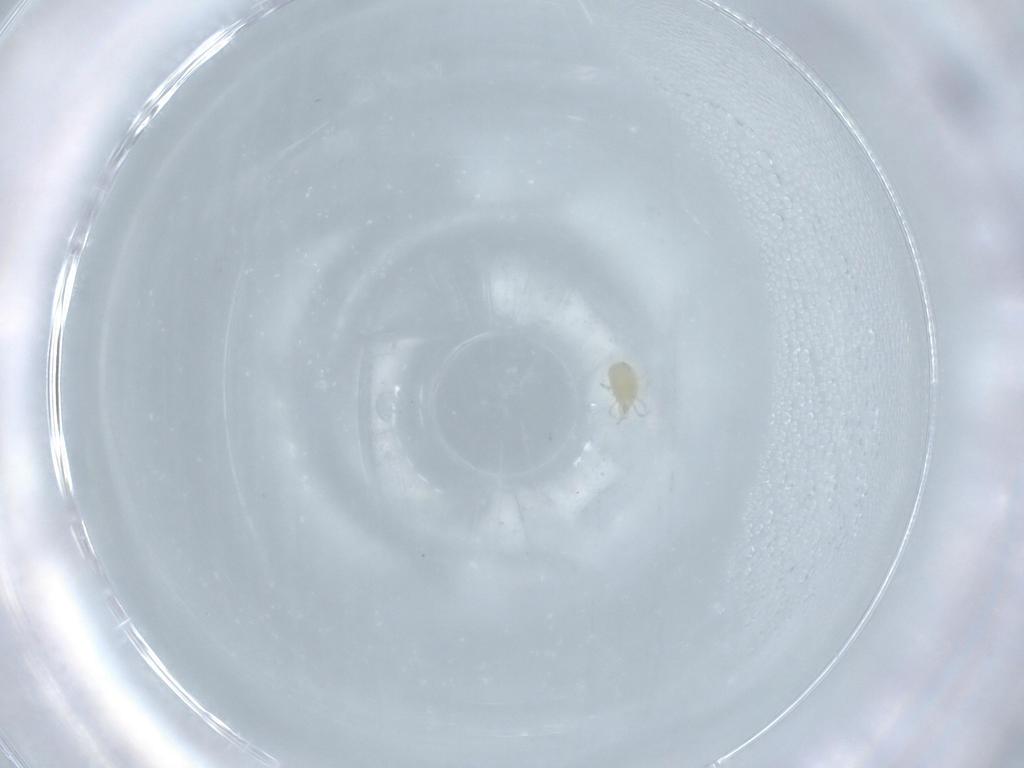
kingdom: Animalia
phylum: Arthropoda
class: Arachnida
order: Mesostigmata
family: Phytoseiidae
